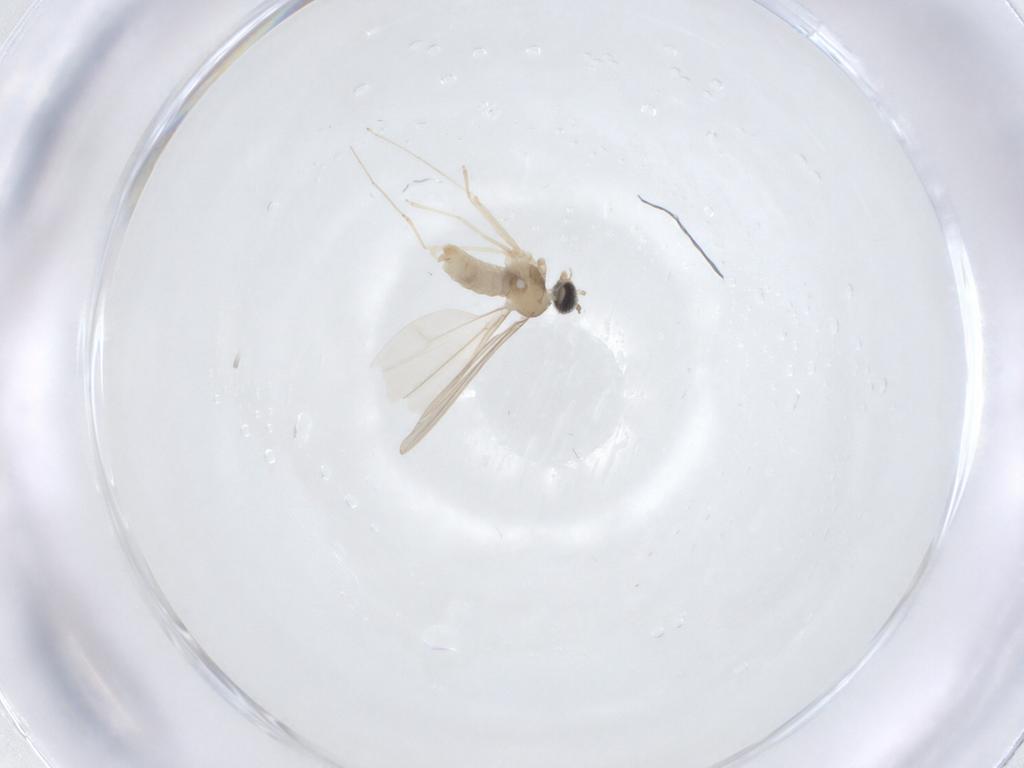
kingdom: Animalia
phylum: Arthropoda
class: Insecta
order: Diptera
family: Cecidomyiidae
